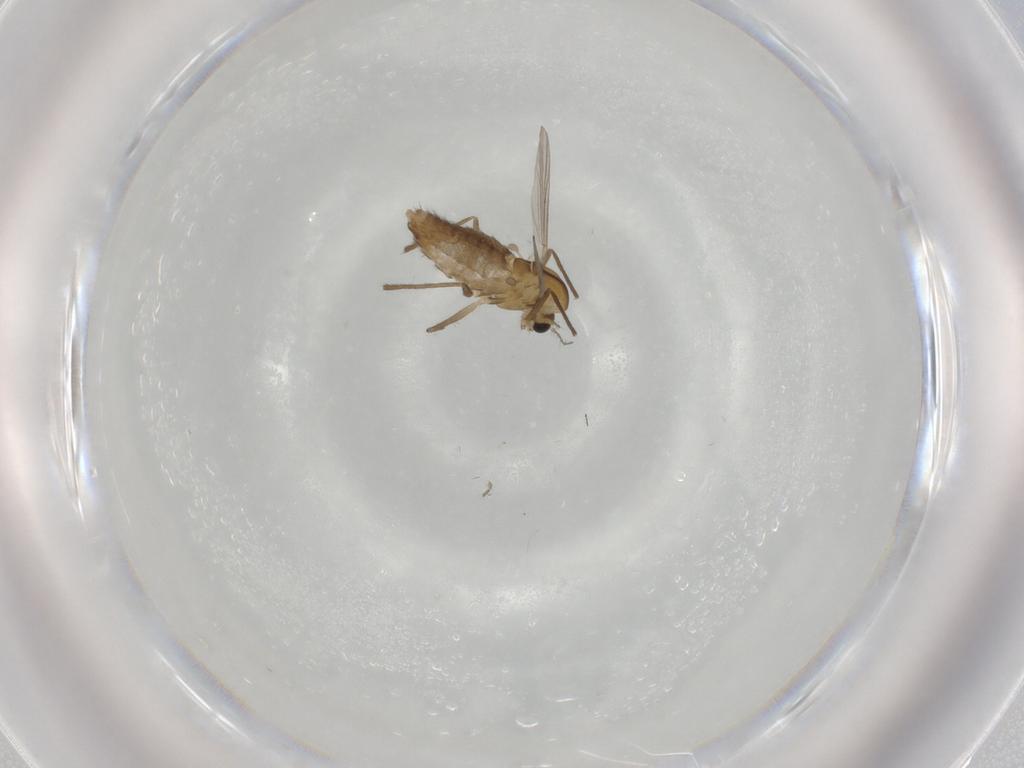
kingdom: Animalia
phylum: Arthropoda
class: Insecta
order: Diptera
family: Chironomidae
